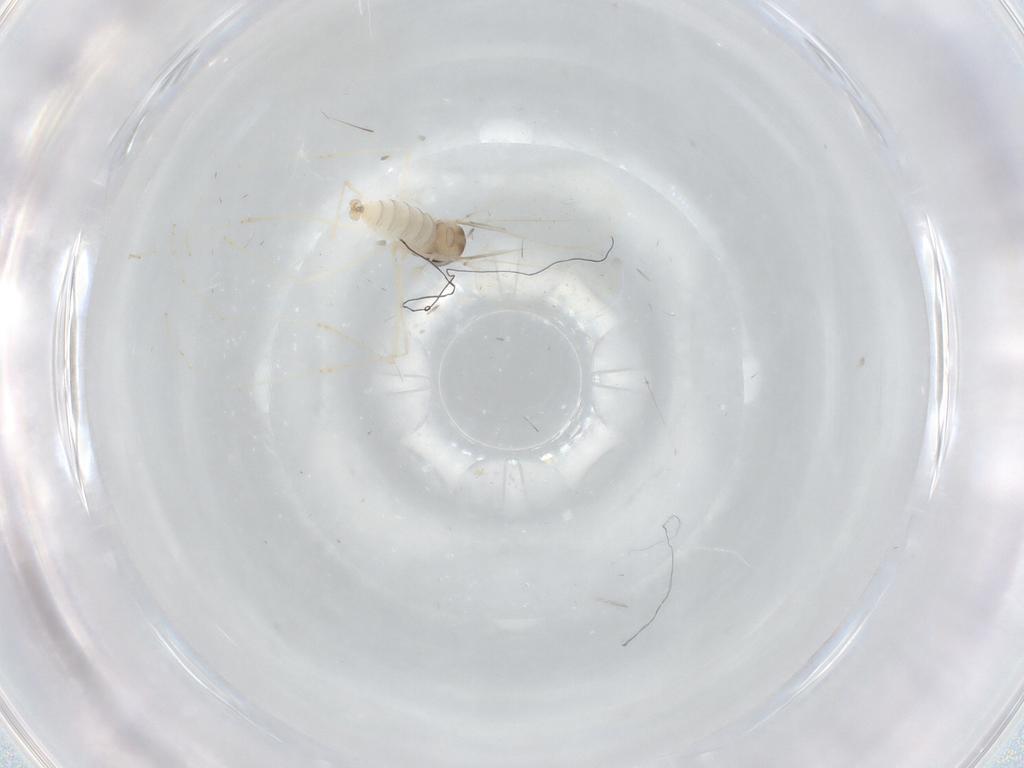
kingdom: Animalia
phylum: Arthropoda
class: Insecta
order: Diptera
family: Cecidomyiidae
